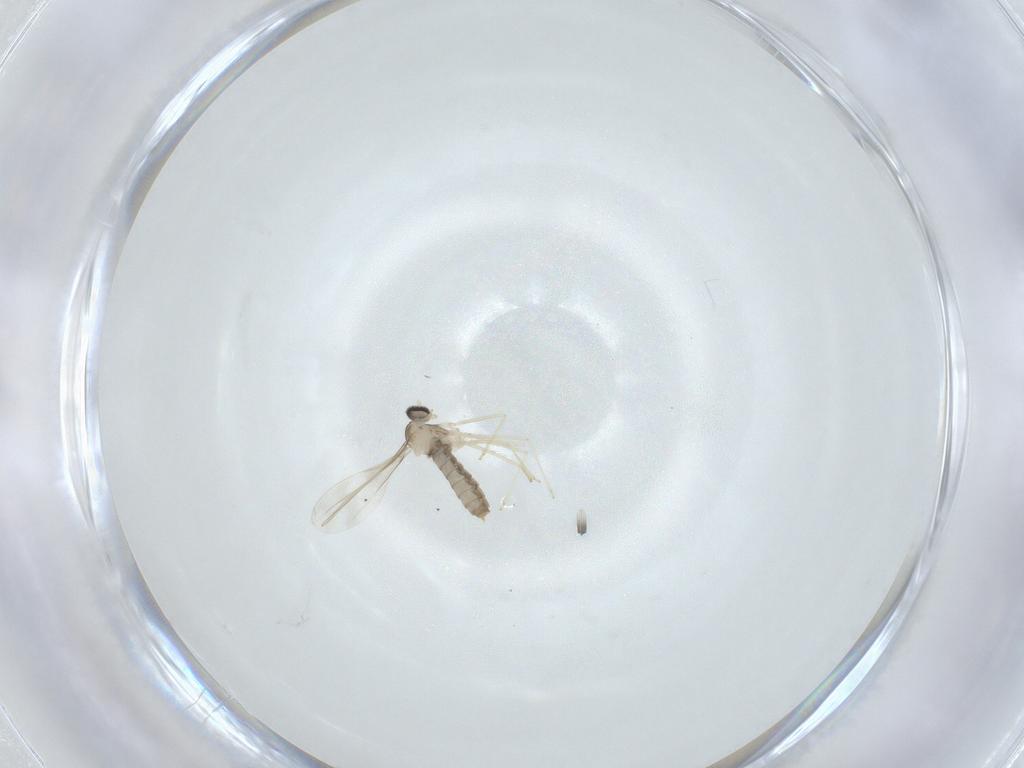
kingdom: Animalia
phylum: Arthropoda
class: Insecta
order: Diptera
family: Cecidomyiidae
